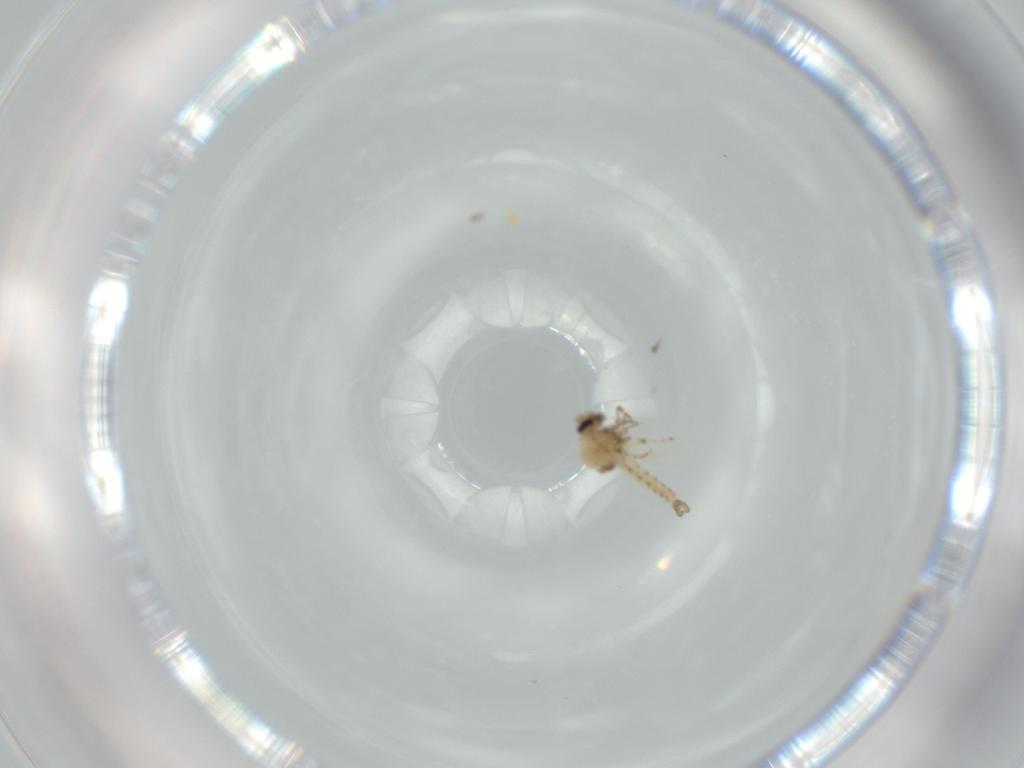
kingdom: Animalia
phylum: Arthropoda
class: Insecta
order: Diptera
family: Ceratopogonidae
